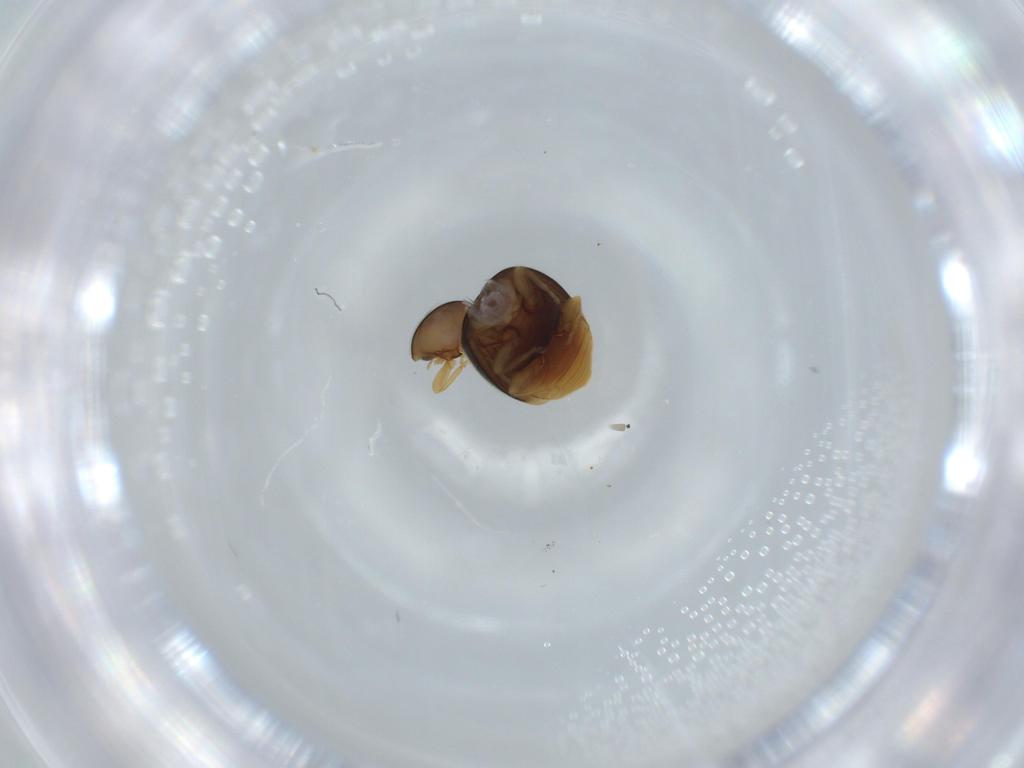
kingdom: Animalia
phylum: Arthropoda
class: Insecta
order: Coleoptera
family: Coccinellidae
